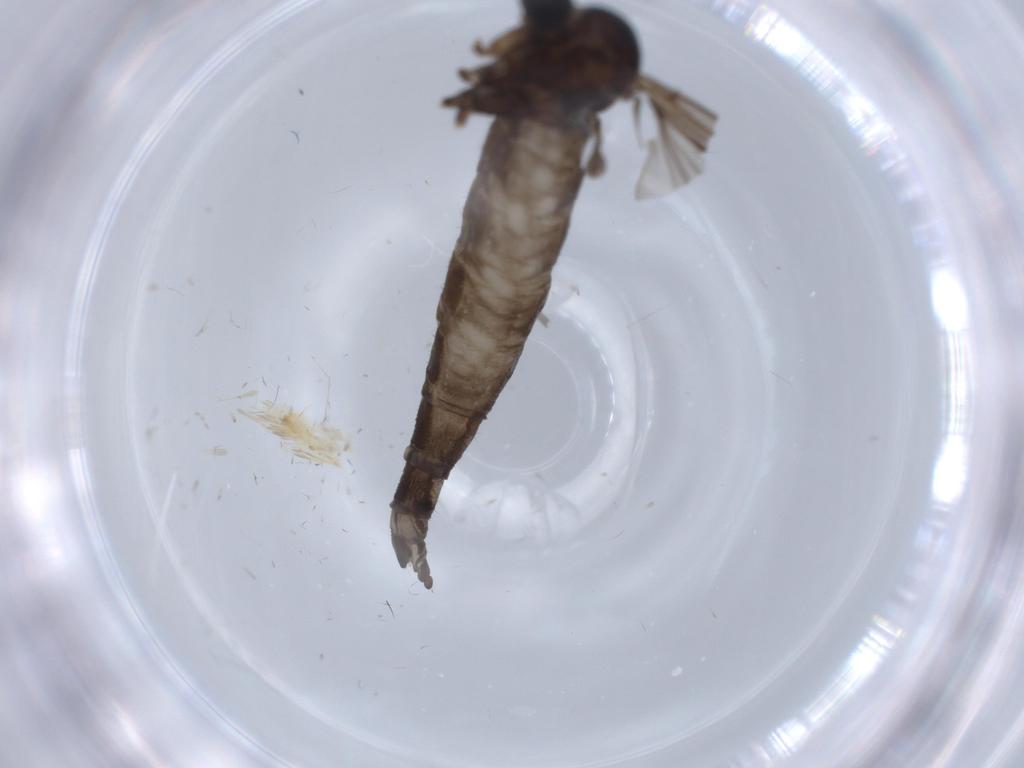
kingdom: Animalia
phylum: Arthropoda
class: Insecta
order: Diptera
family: Sciaridae
